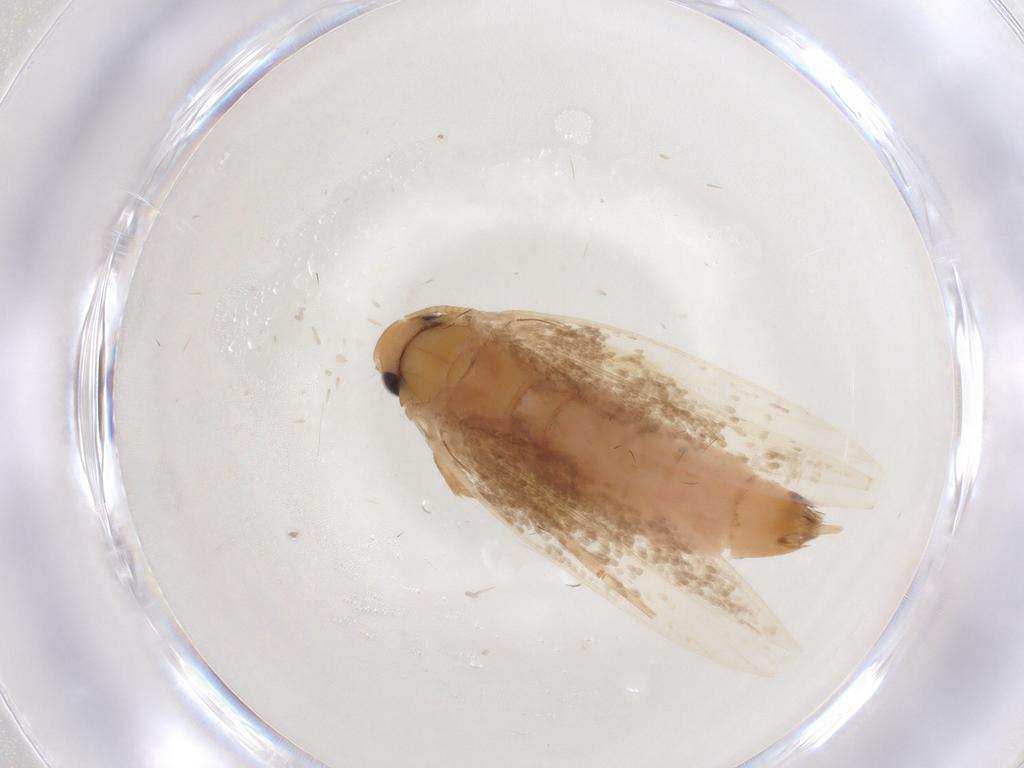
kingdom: Animalia
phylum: Arthropoda
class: Insecta
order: Lepidoptera
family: Tineidae
